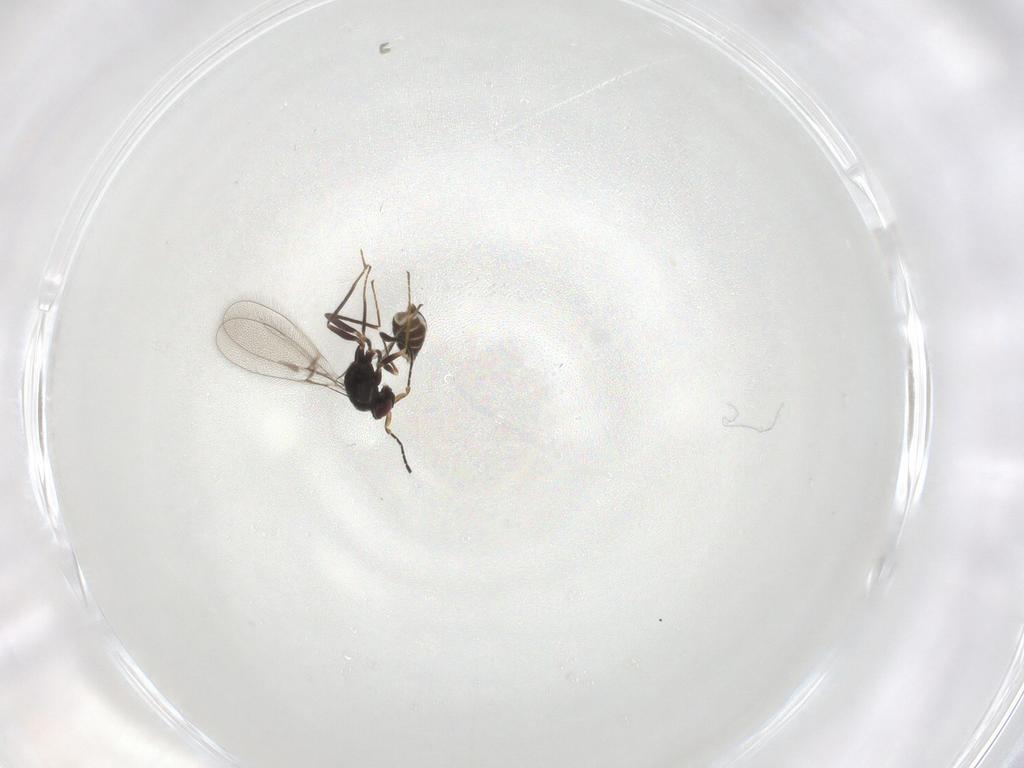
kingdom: Animalia
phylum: Arthropoda
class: Insecta
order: Hymenoptera
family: Mymaridae
